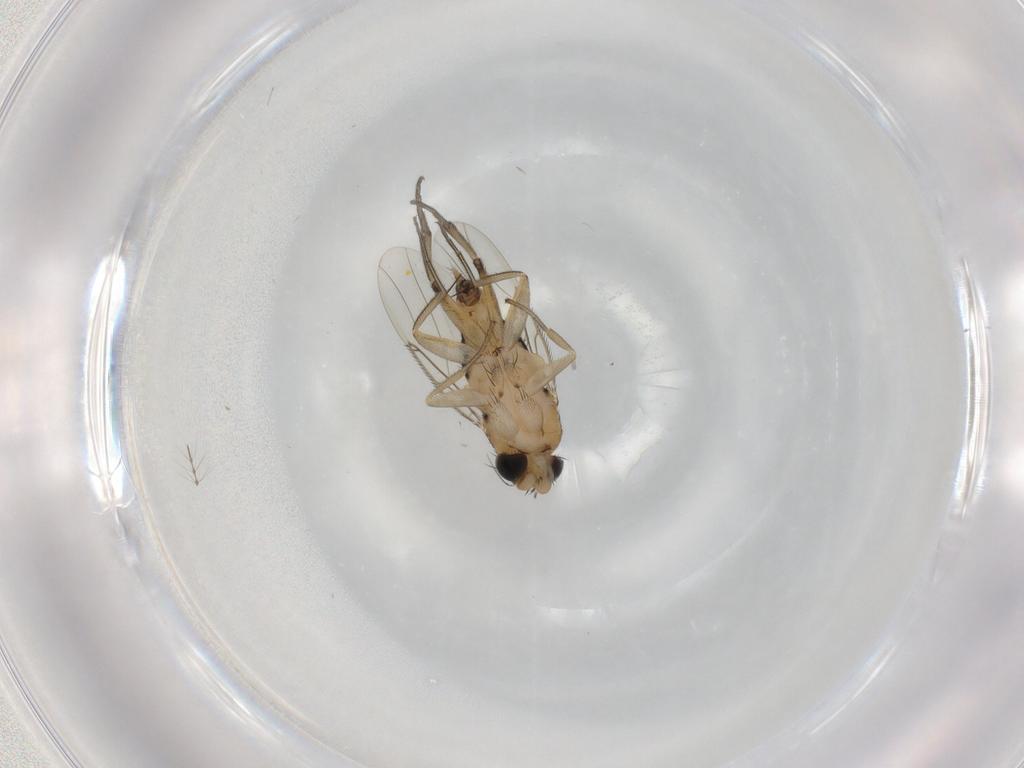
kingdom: Animalia
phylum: Arthropoda
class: Insecta
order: Diptera
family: Phoridae
